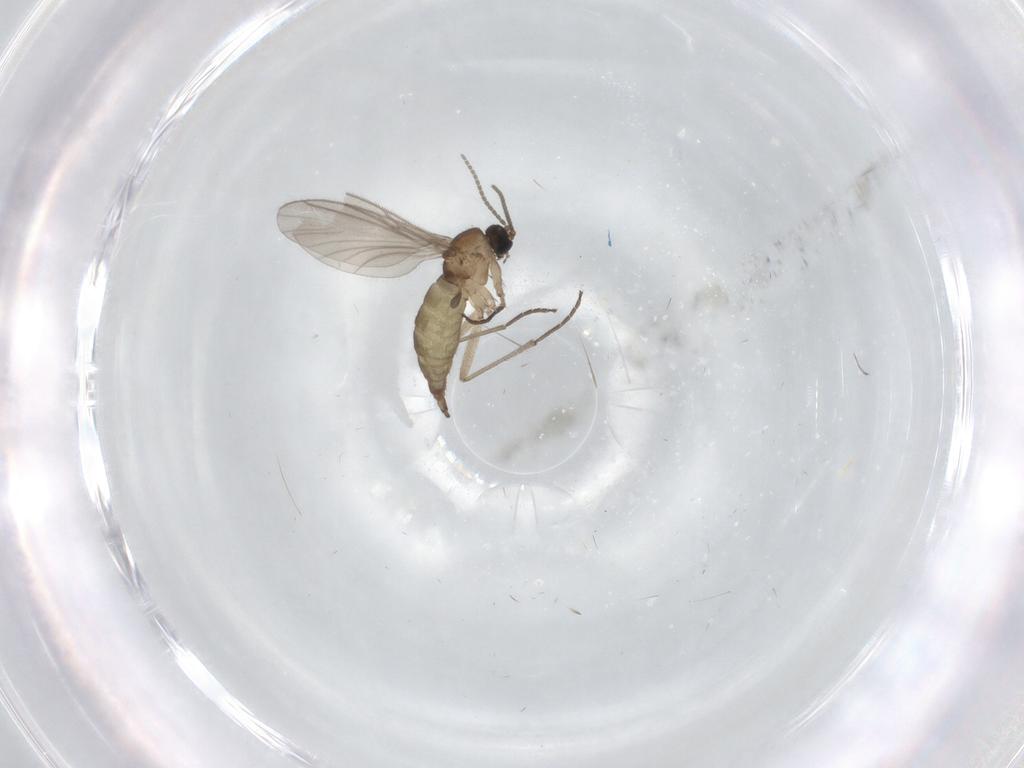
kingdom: Animalia
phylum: Arthropoda
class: Insecta
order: Diptera
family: Sciaridae
